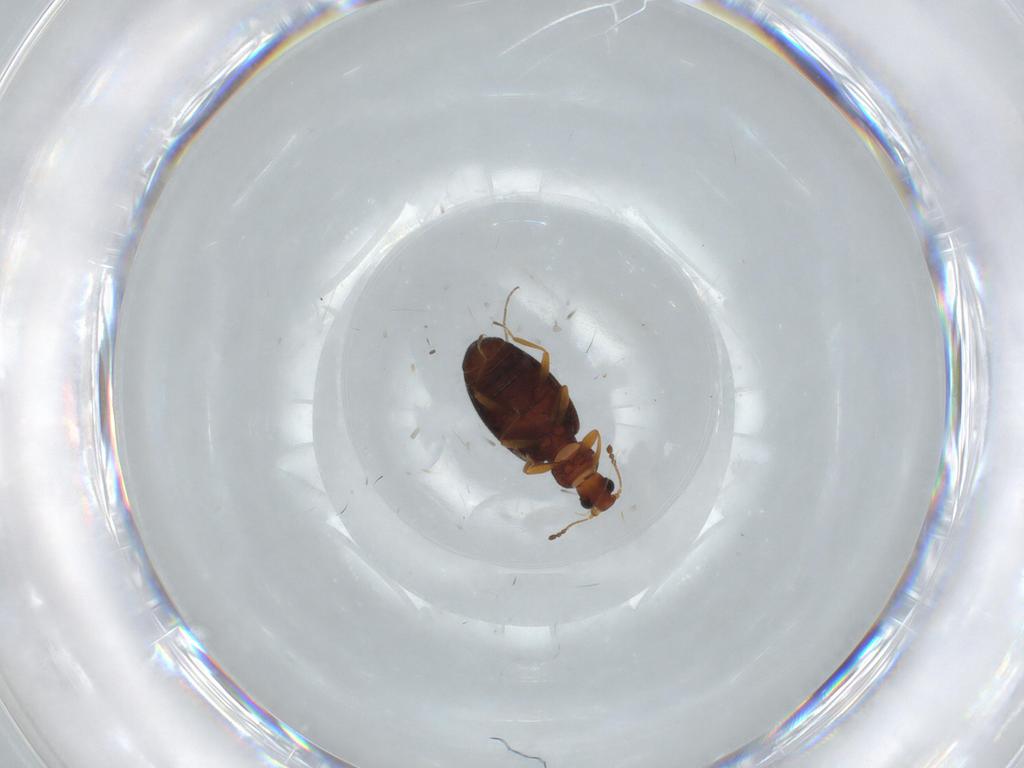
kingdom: Animalia
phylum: Arthropoda
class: Insecta
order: Coleoptera
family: Latridiidae
